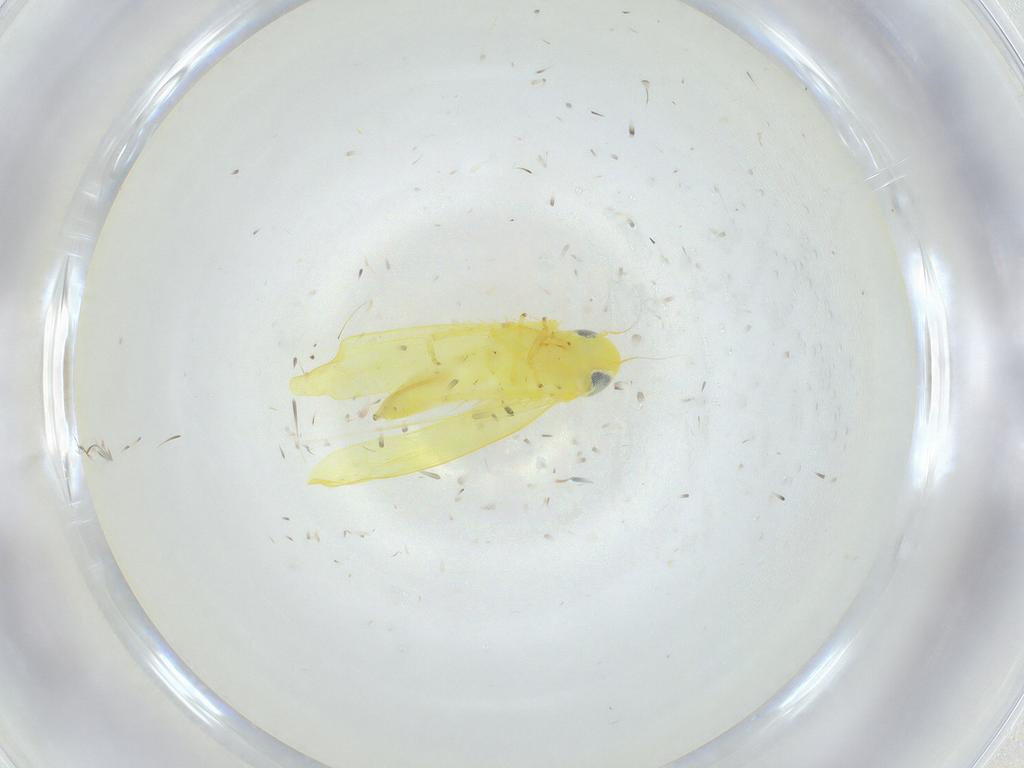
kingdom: Animalia
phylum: Arthropoda
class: Insecta
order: Hemiptera
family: Cicadellidae
